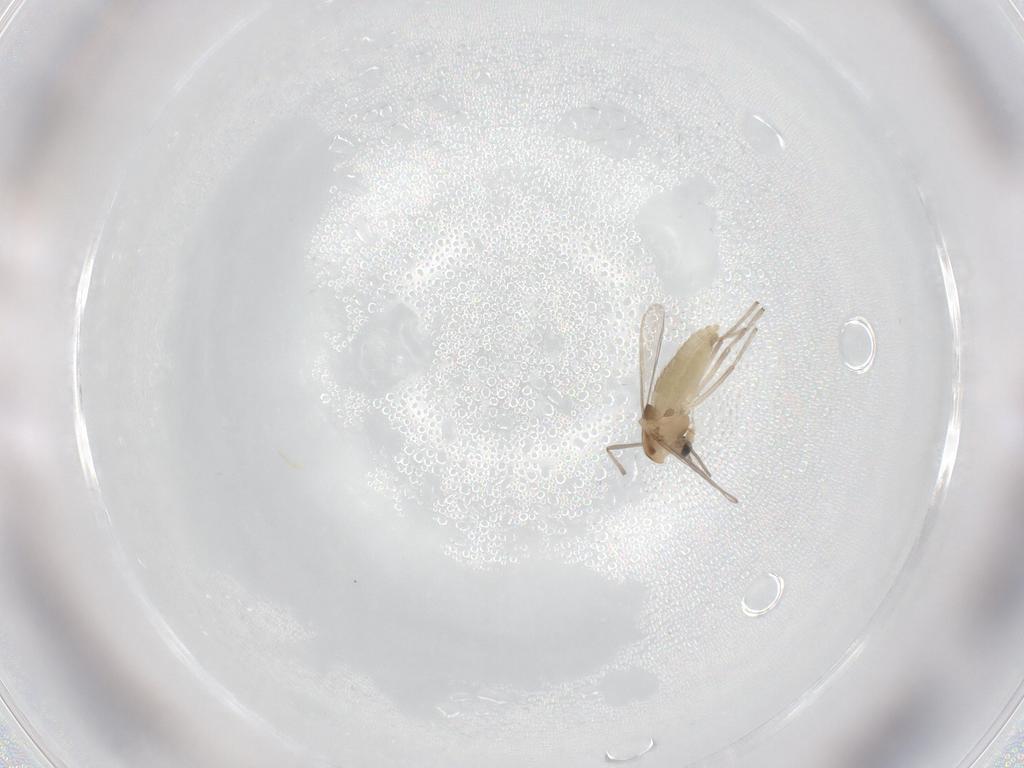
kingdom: Animalia
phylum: Arthropoda
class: Insecta
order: Diptera
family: Chironomidae
